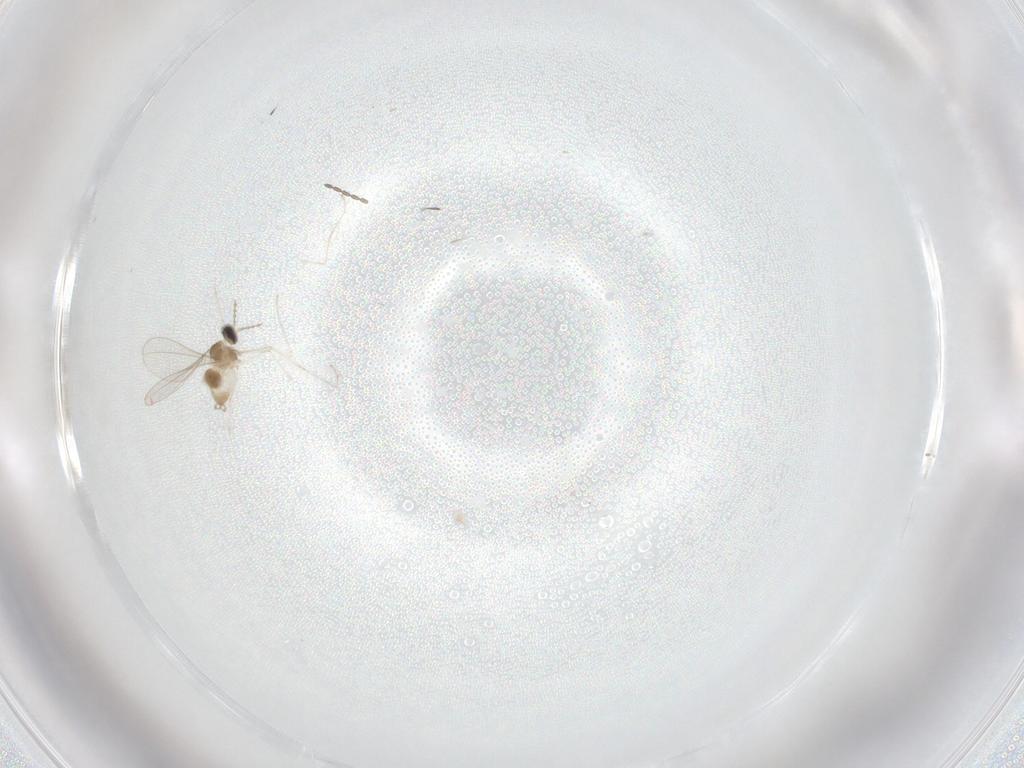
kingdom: Animalia
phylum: Arthropoda
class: Insecta
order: Diptera
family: Cecidomyiidae
